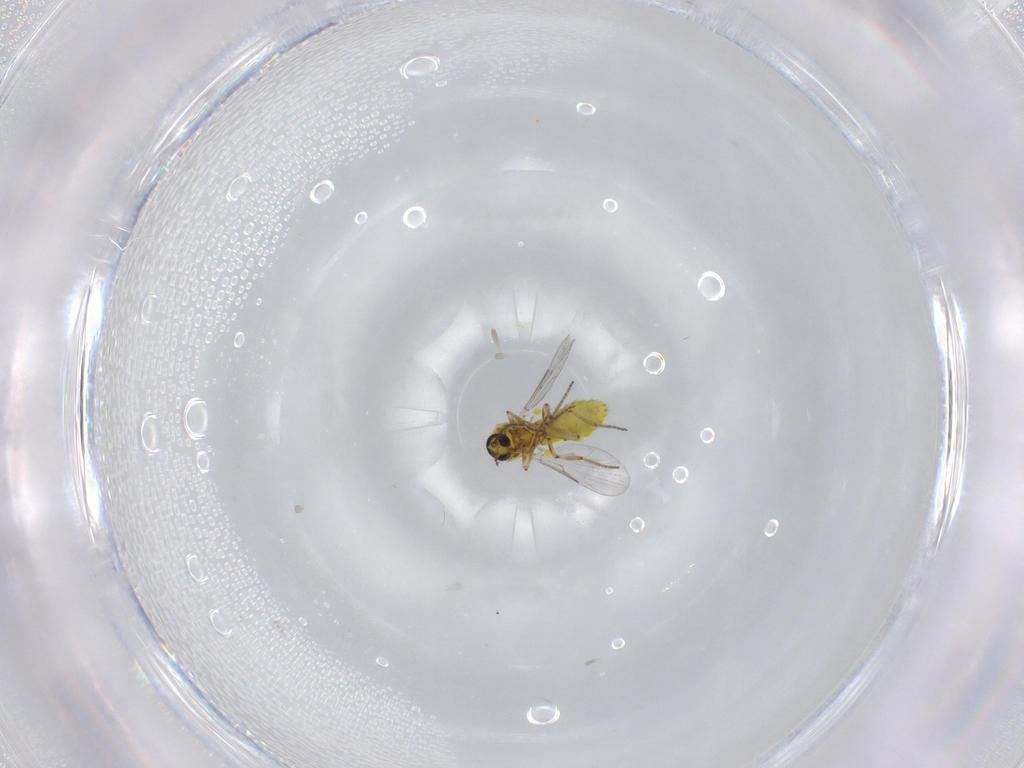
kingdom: Animalia
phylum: Arthropoda
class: Insecta
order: Diptera
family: Ceratopogonidae
